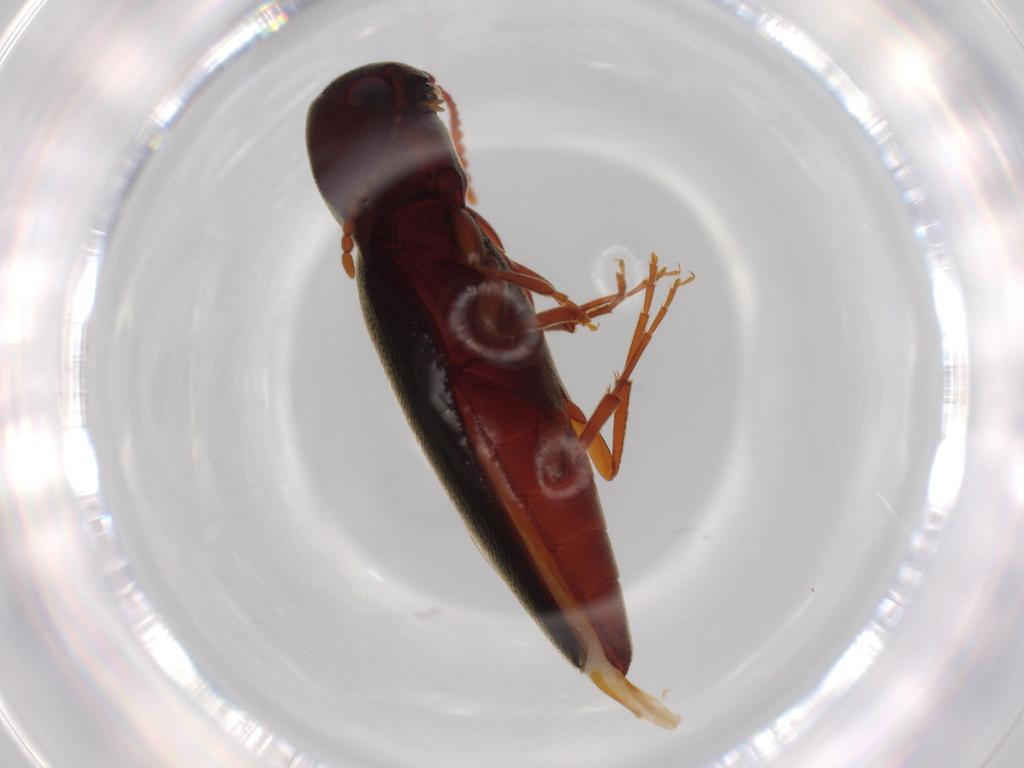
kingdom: Animalia
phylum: Arthropoda
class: Insecta
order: Coleoptera
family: Eucnemidae
